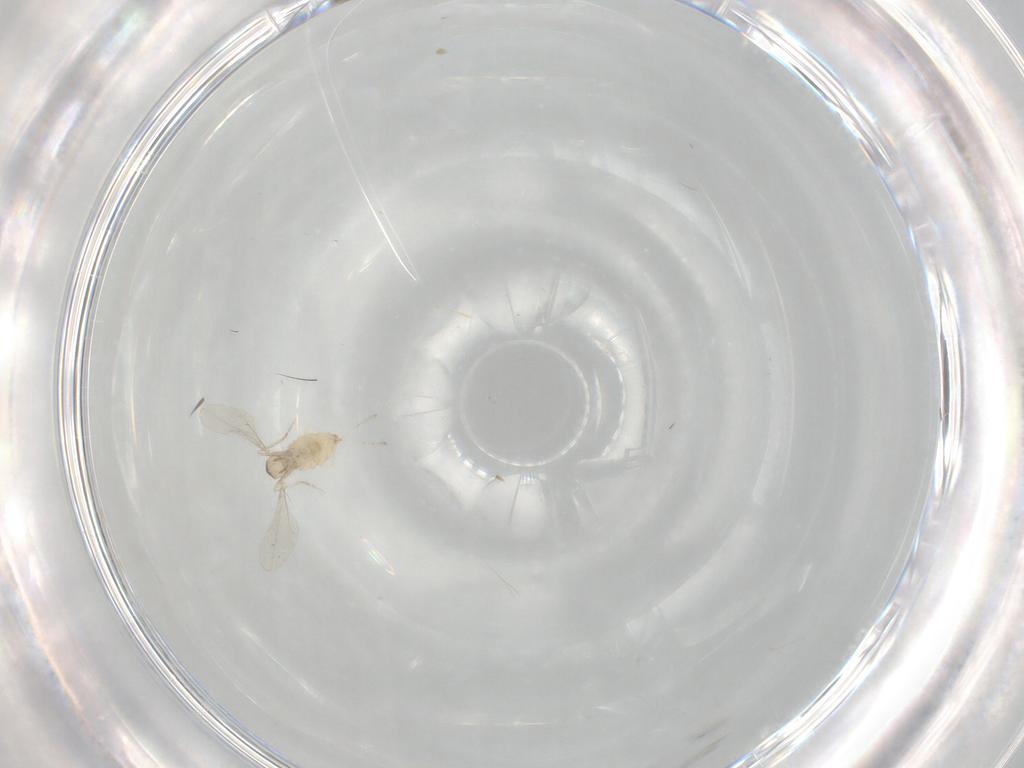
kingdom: Animalia
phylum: Arthropoda
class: Insecta
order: Diptera
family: Cecidomyiidae
